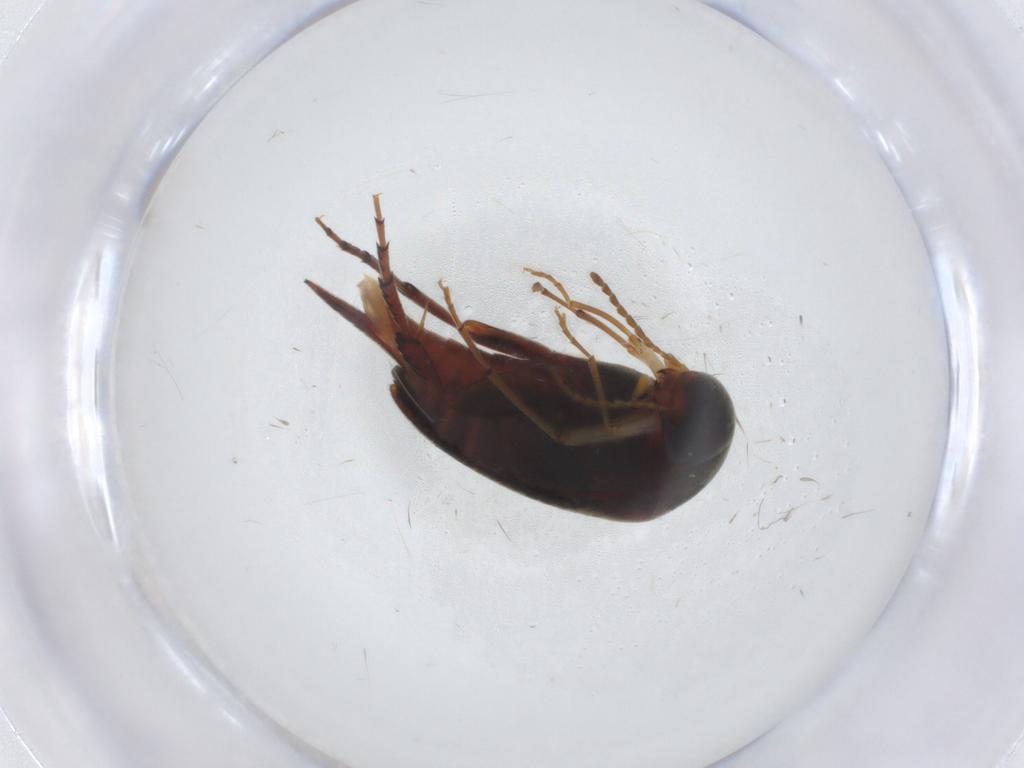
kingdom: Animalia
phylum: Arthropoda
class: Insecta
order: Coleoptera
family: Mordellidae
